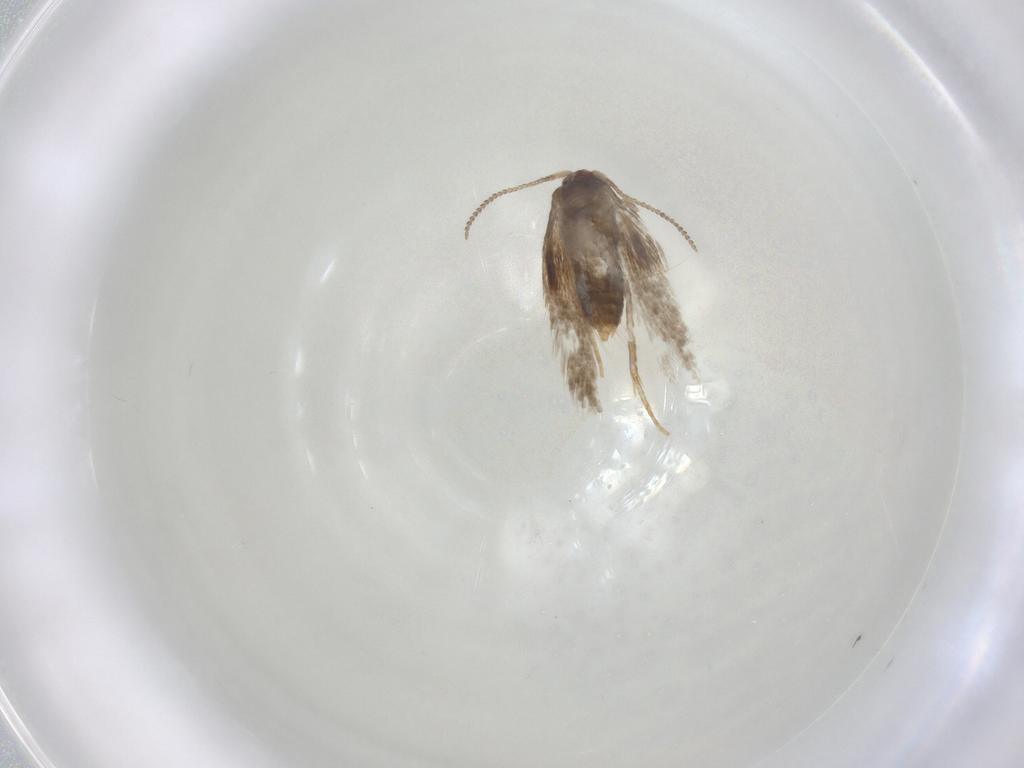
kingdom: Animalia
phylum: Arthropoda
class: Insecta
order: Lepidoptera
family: Nepticulidae
